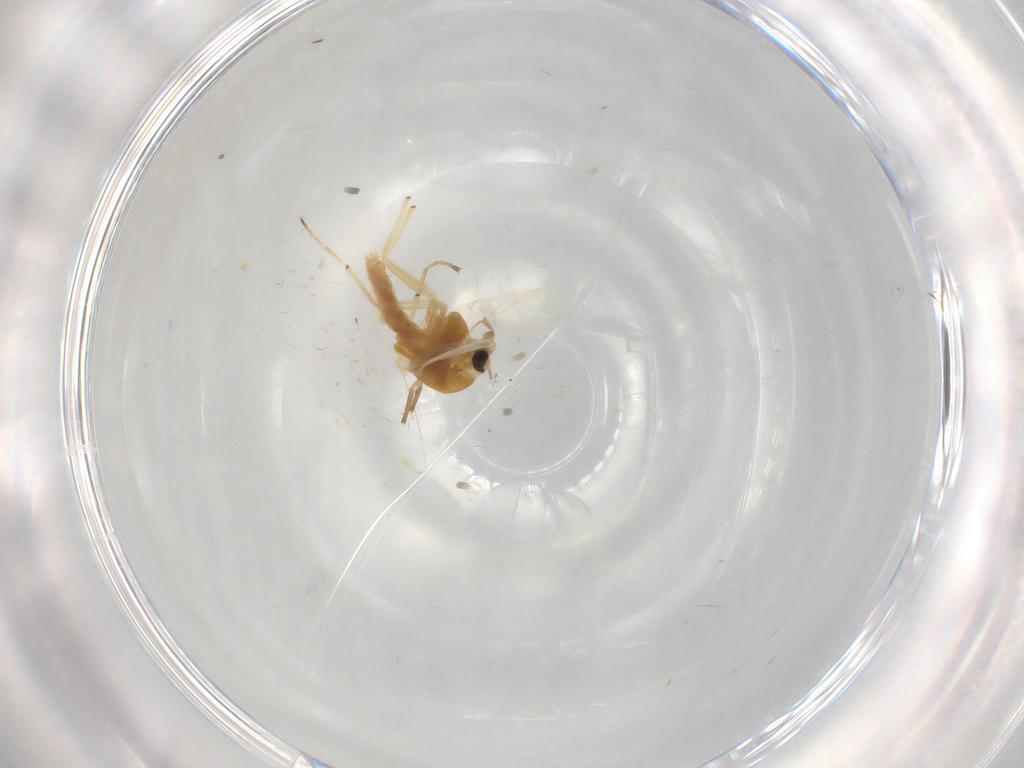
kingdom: Animalia
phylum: Arthropoda
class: Insecta
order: Diptera
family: Chironomidae
